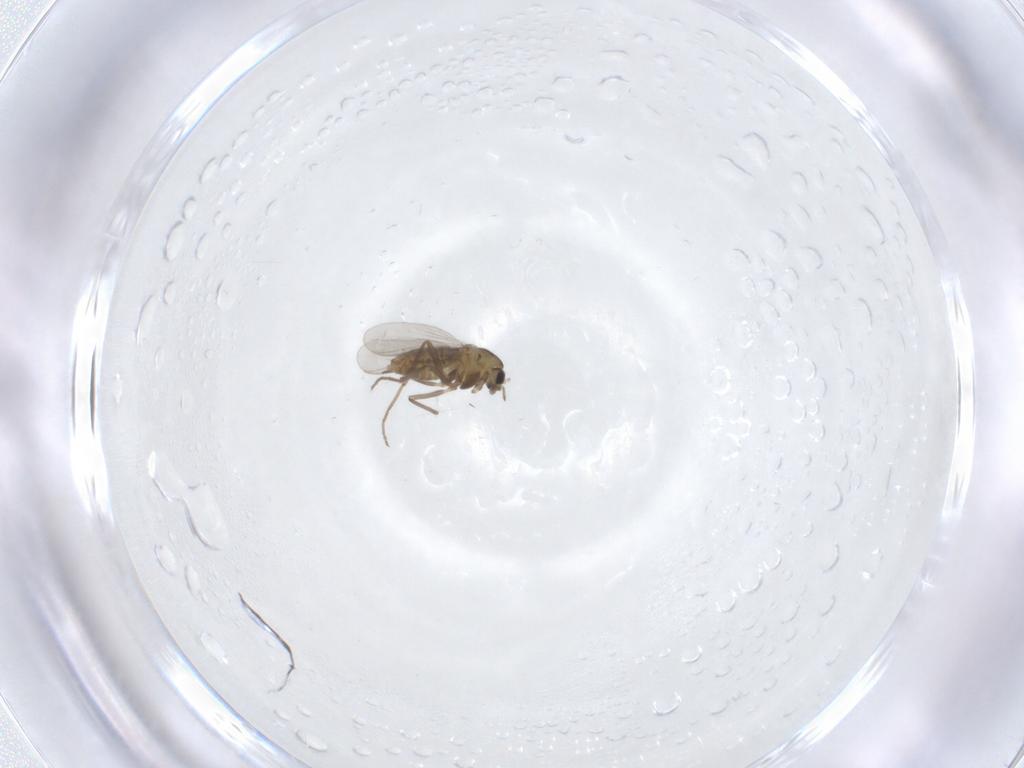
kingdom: Animalia
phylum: Arthropoda
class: Insecta
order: Diptera
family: Chironomidae
